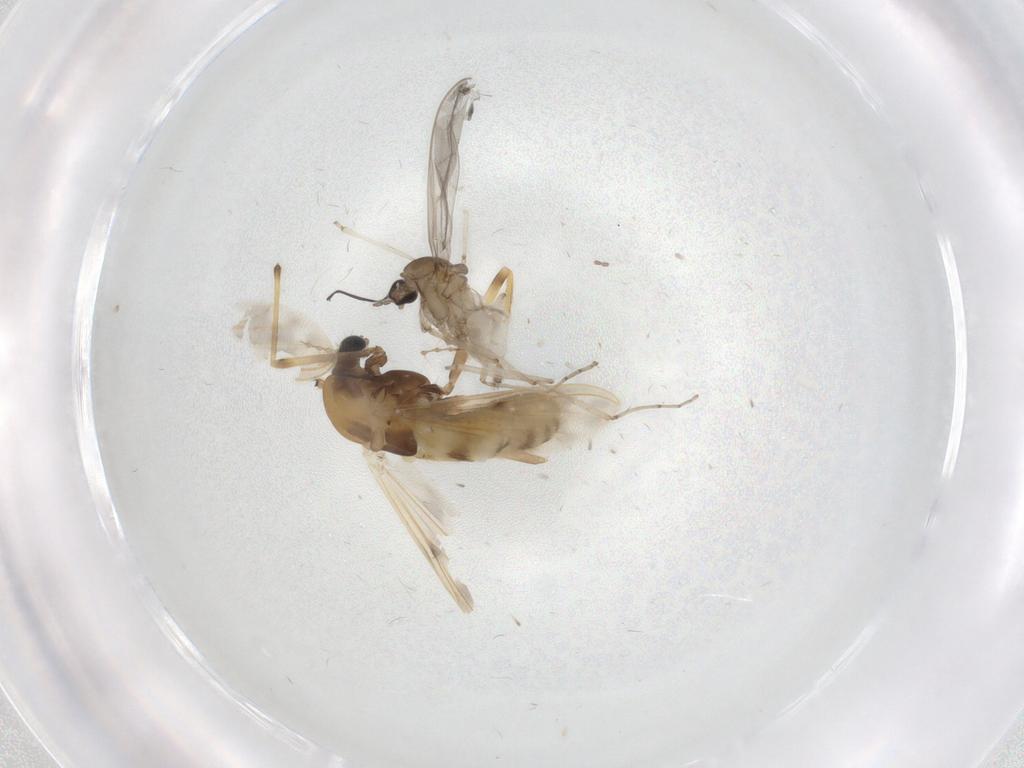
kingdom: Animalia
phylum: Arthropoda
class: Insecta
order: Diptera
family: Chironomidae
